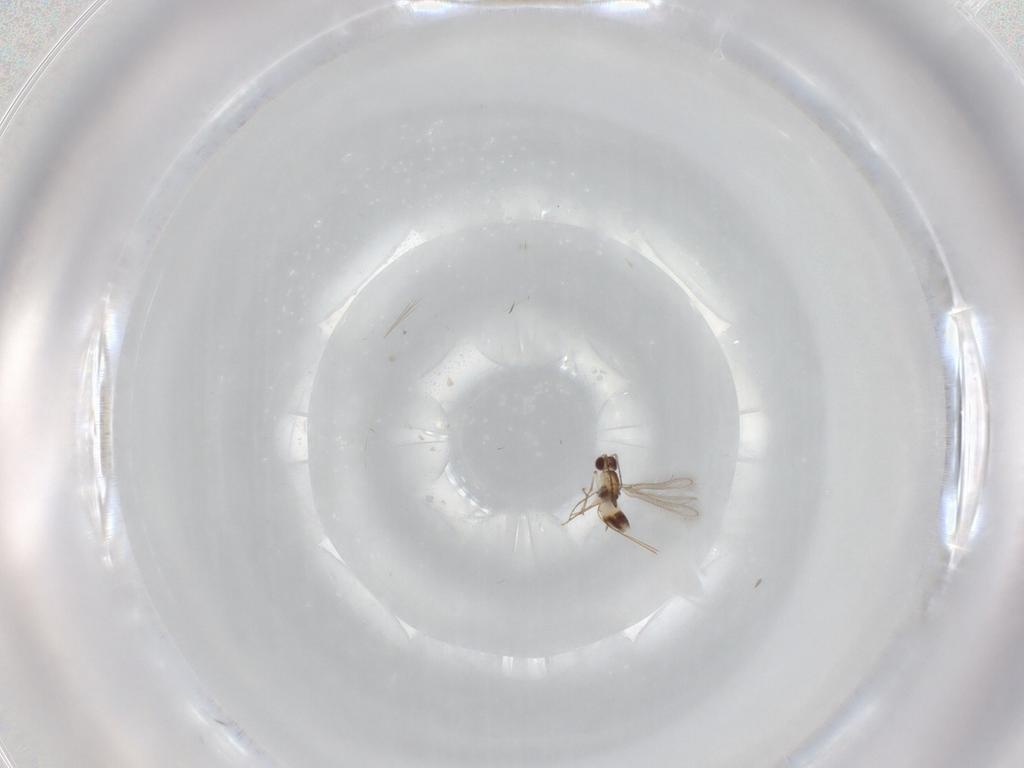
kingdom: Animalia
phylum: Arthropoda
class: Insecta
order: Hymenoptera
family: Mymaridae
